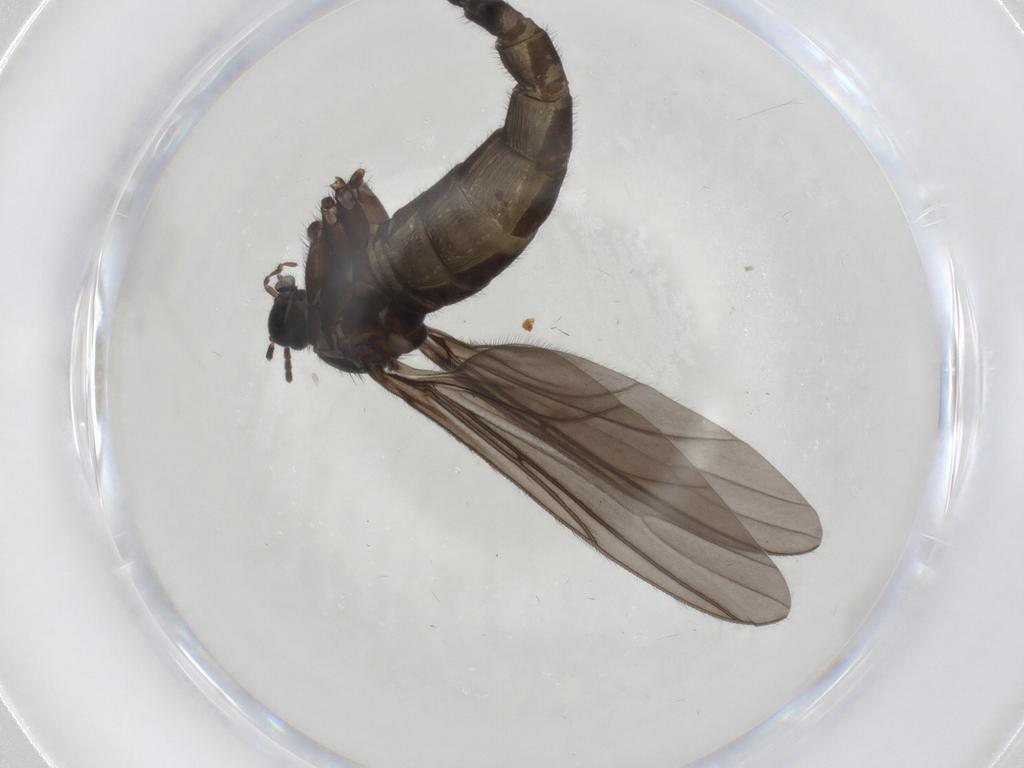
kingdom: Animalia
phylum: Arthropoda
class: Insecta
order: Diptera
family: Sciaridae
